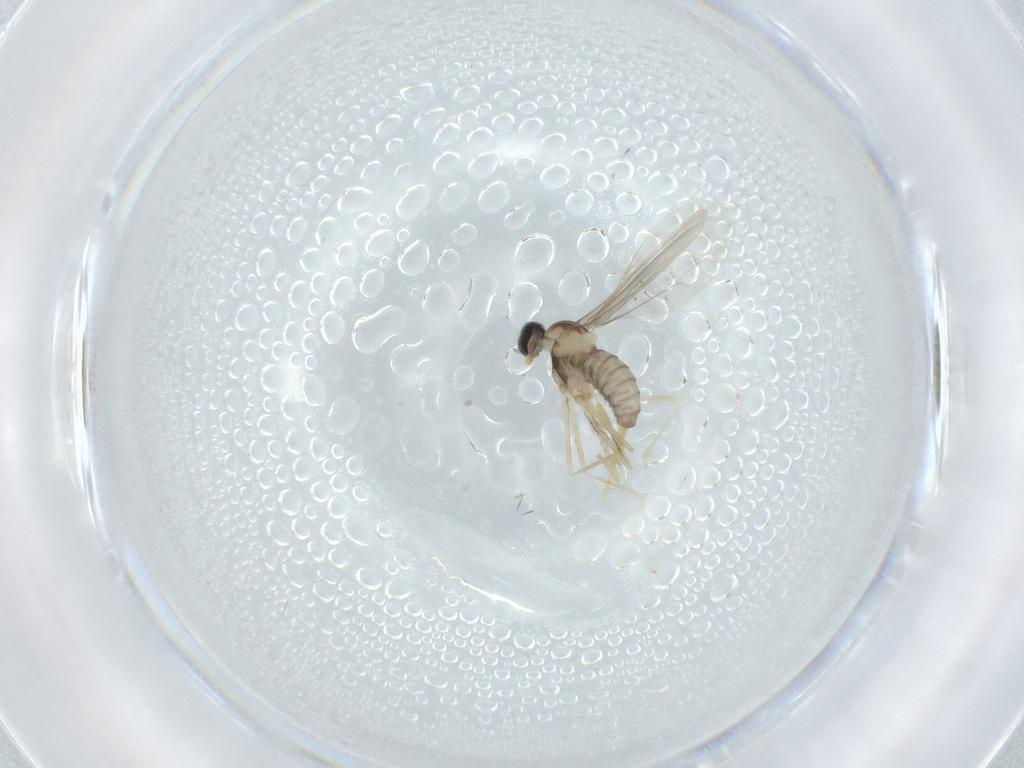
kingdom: Animalia
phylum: Arthropoda
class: Insecta
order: Diptera
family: Cecidomyiidae
